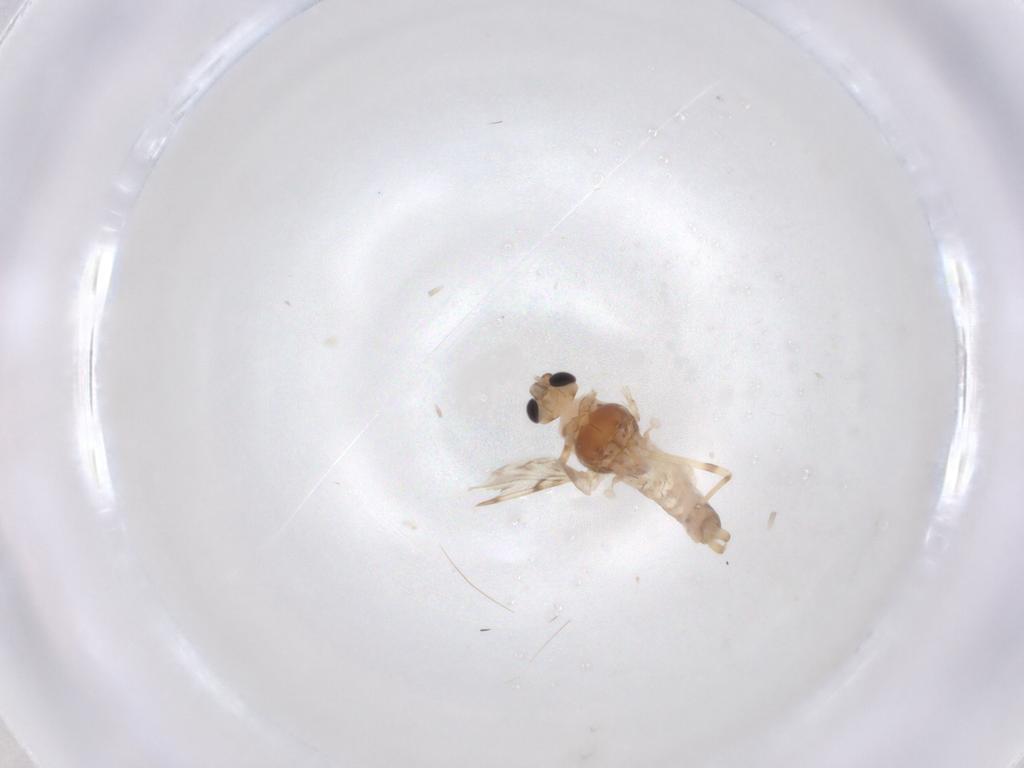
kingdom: Animalia
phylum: Arthropoda
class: Insecta
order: Diptera
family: Chironomidae
